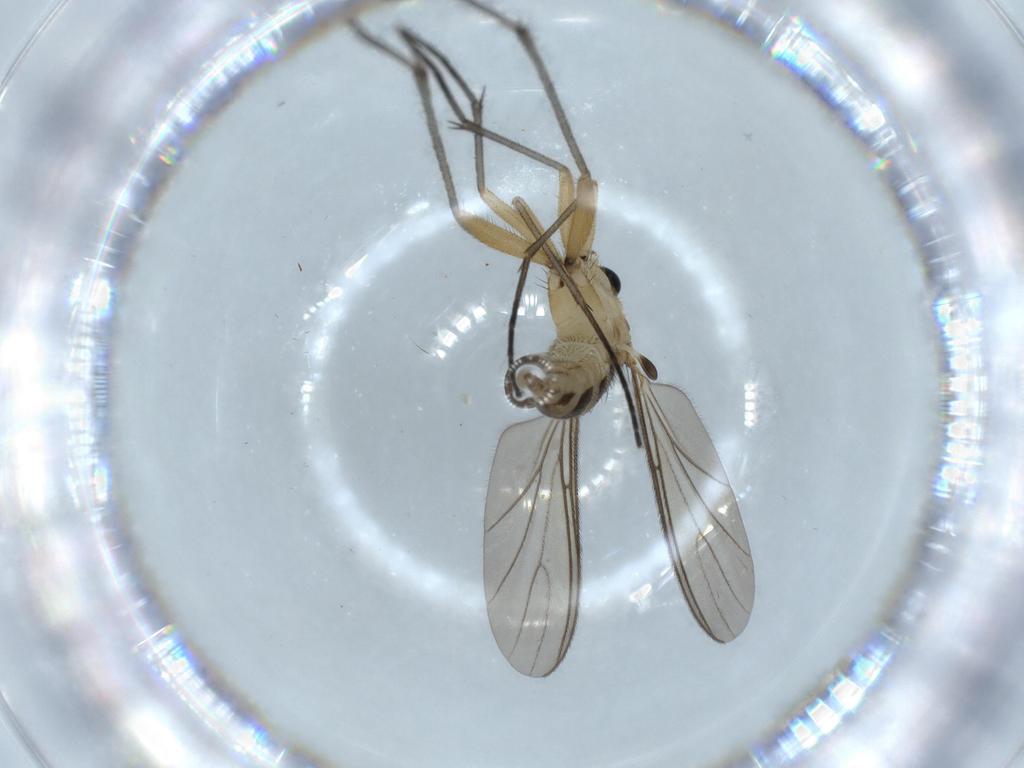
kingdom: Animalia
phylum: Arthropoda
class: Insecta
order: Diptera
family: Sciaridae
